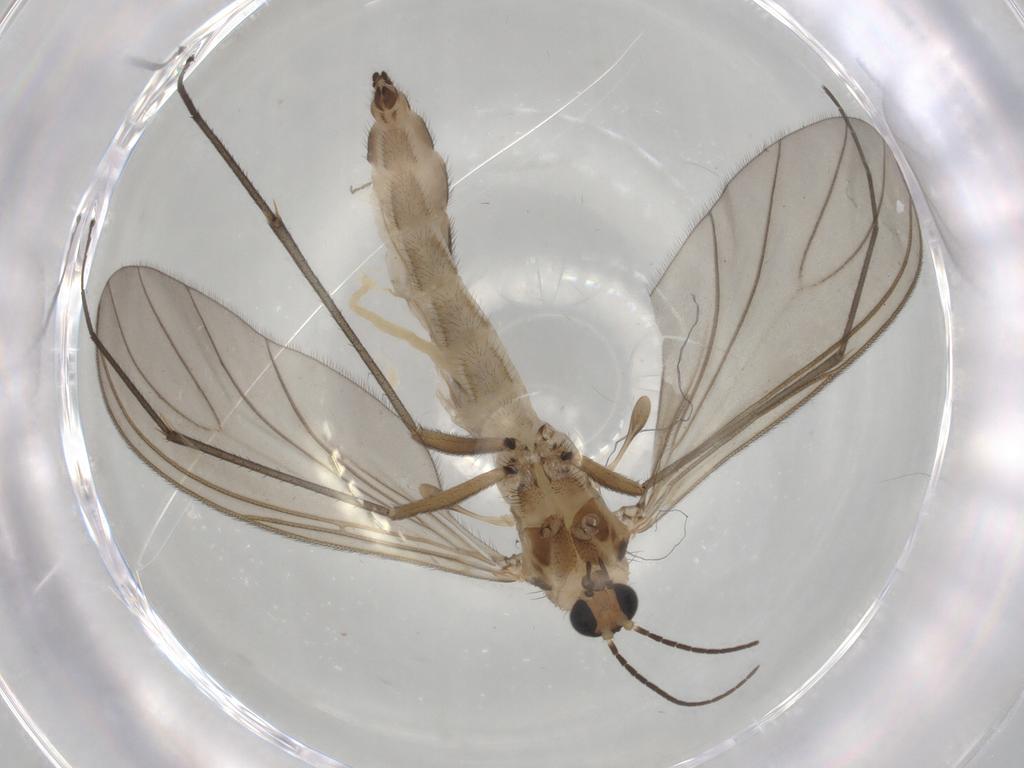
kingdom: Animalia
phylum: Arthropoda
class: Insecta
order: Diptera
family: Sciaridae
